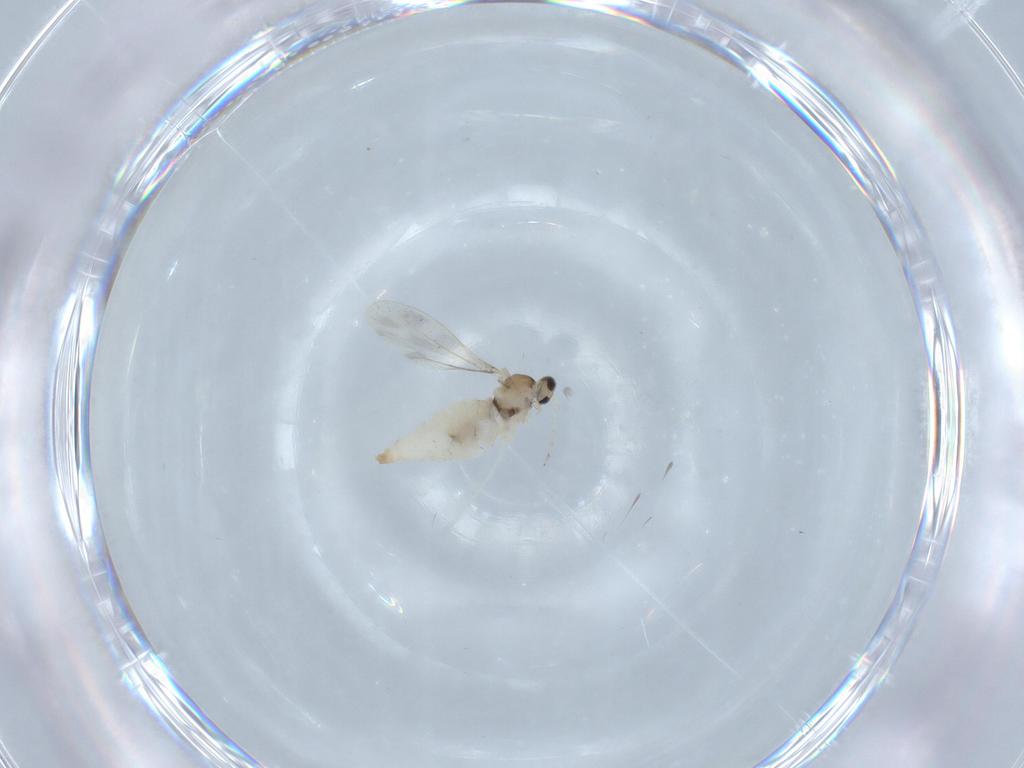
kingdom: Animalia
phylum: Arthropoda
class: Insecta
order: Diptera
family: Cecidomyiidae
